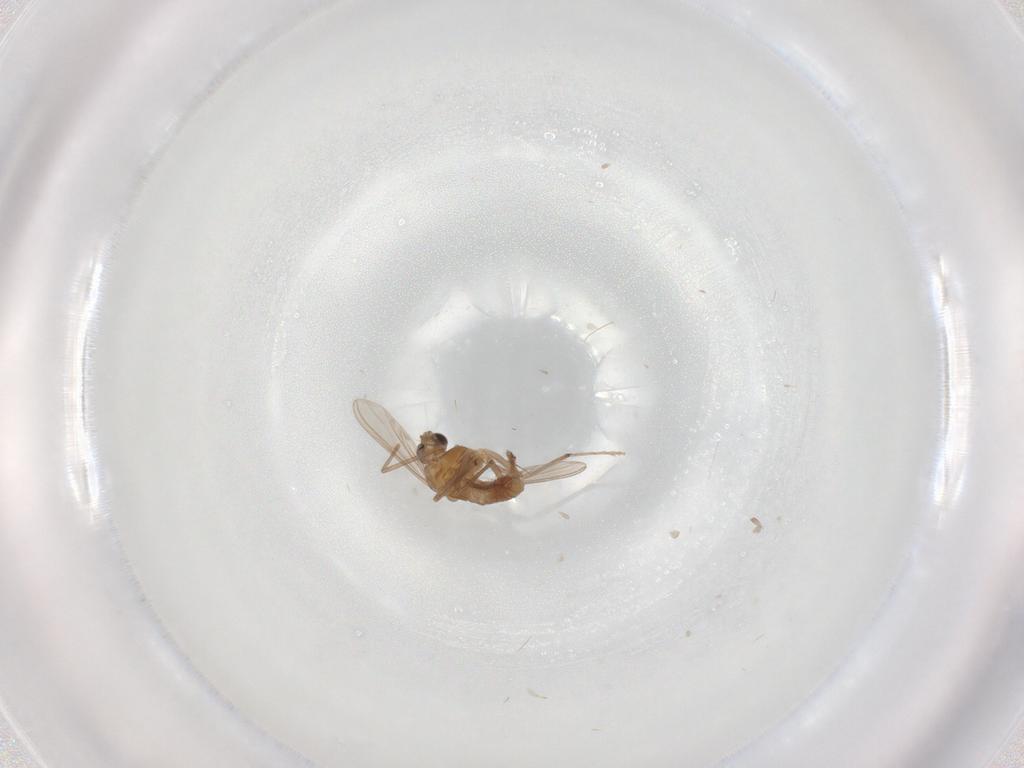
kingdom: Animalia
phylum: Arthropoda
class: Insecta
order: Diptera
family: Chironomidae
